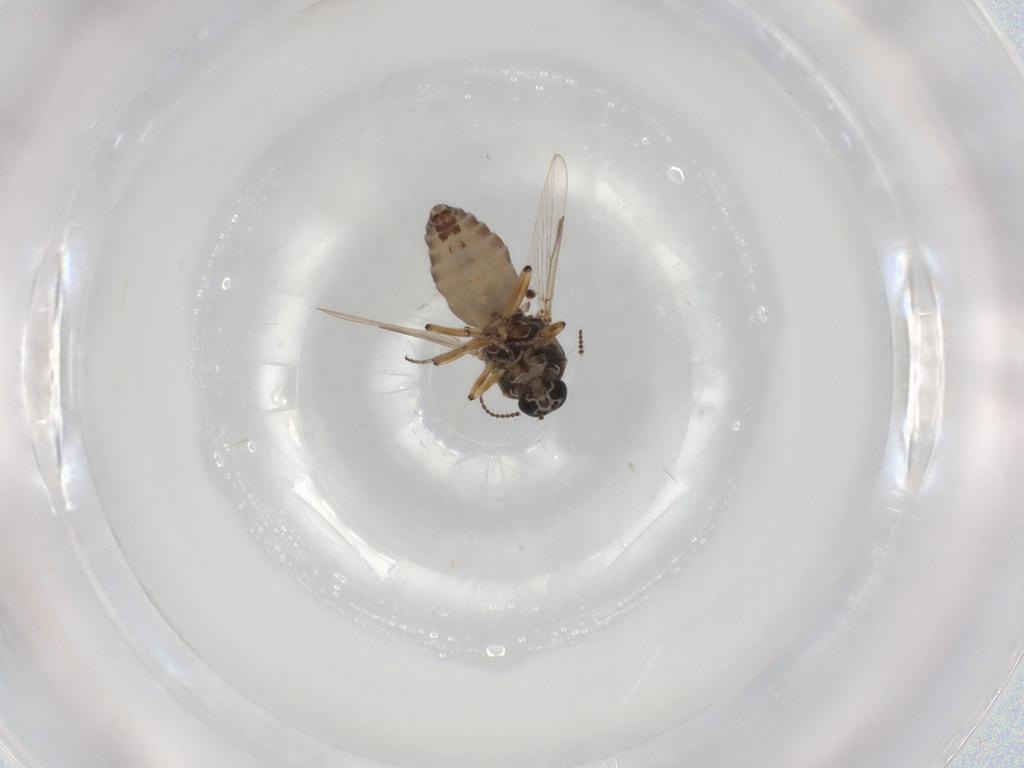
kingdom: Animalia
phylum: Arthropoda
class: Insecta
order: Diptera
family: Ceratopogonidae
